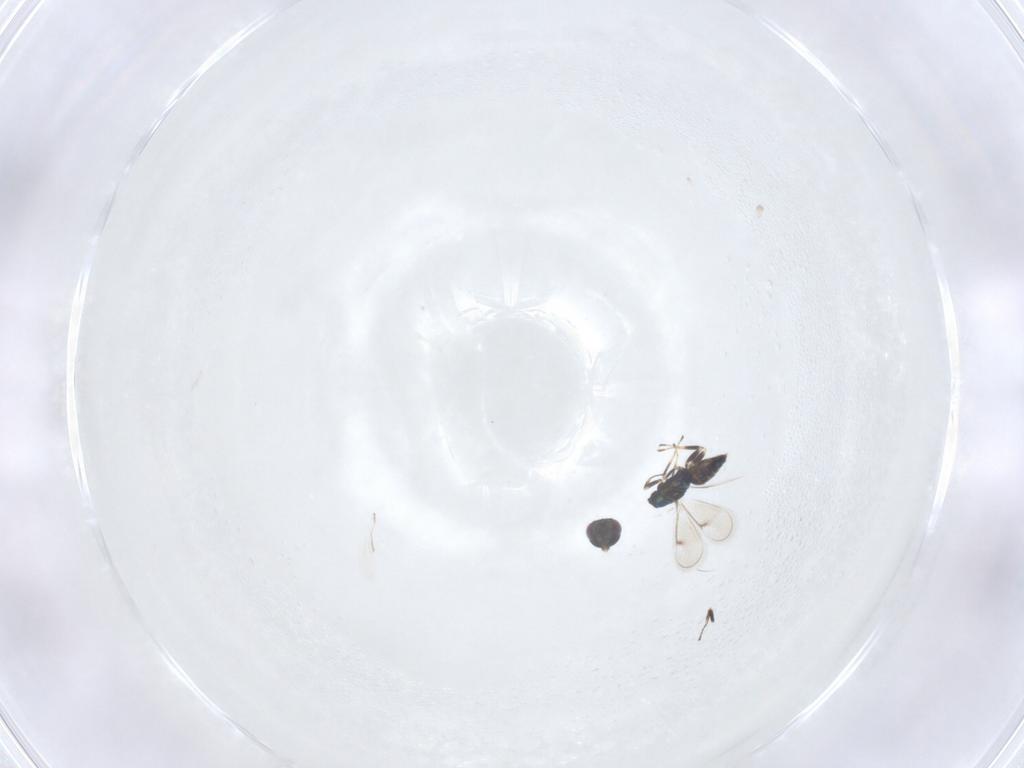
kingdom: Animalia
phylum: Arthropoda
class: Insecta
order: Hymenoptera
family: Eulophidae
